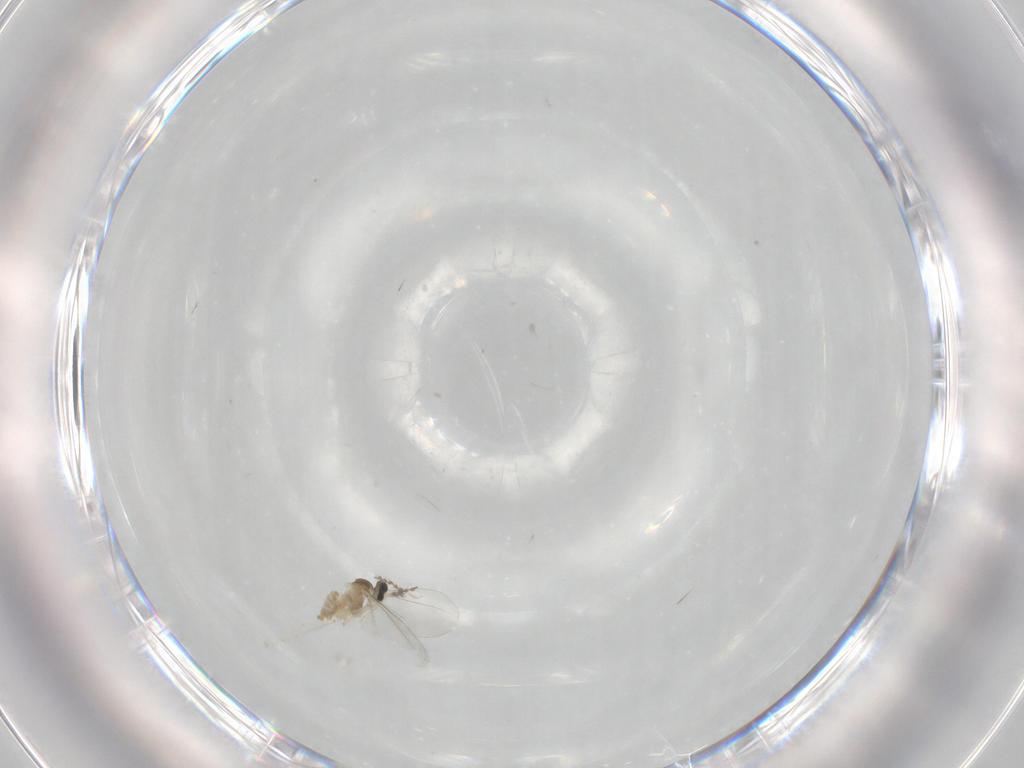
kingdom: Animalia
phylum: Arthropoda
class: Insecta
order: Diptera
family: Cecidomyiidae
